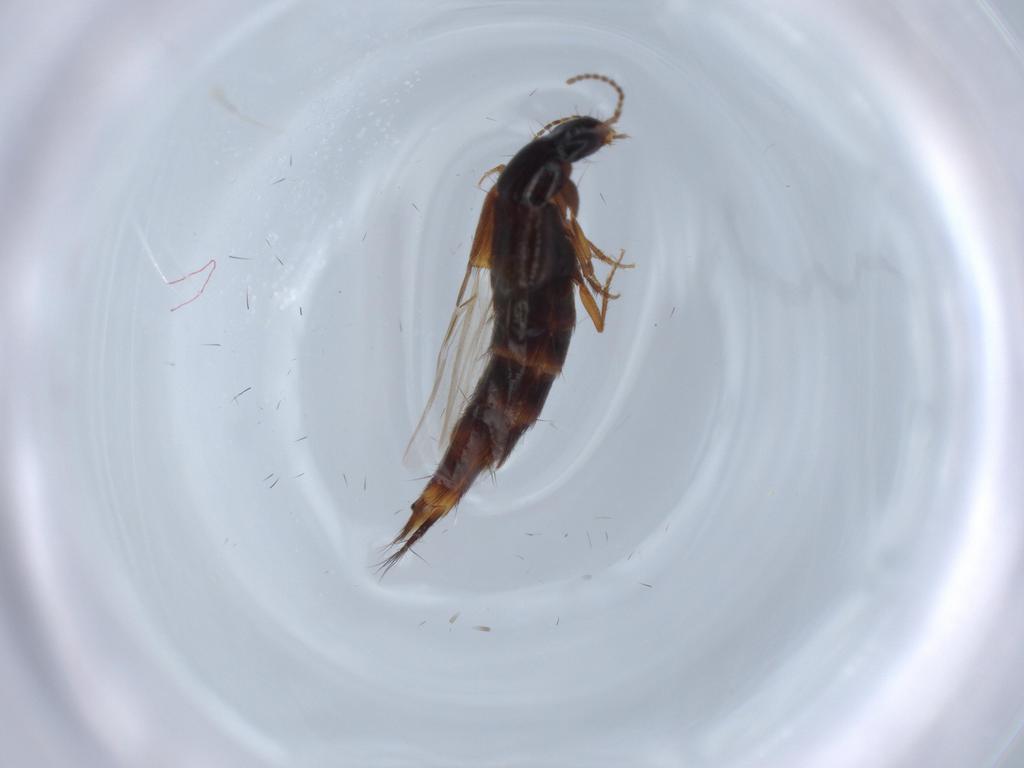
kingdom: Animalia
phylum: Arthropoda
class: Insecta
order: Coleoptera
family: Staphylinidae
